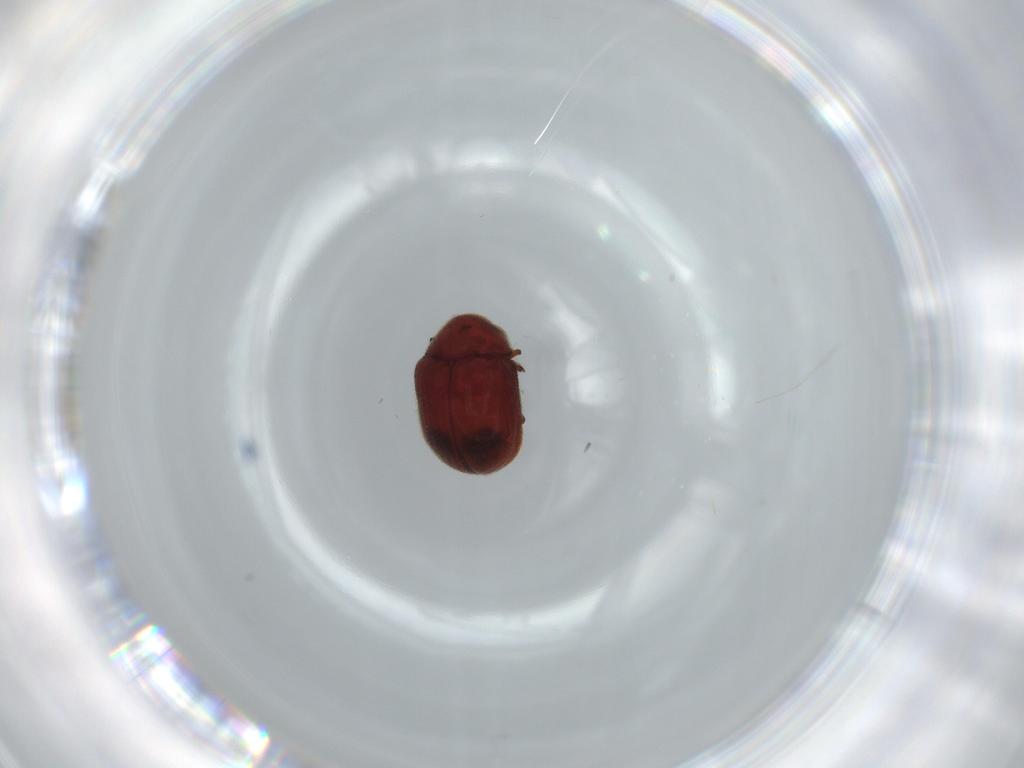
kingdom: Animalia
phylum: Arthropoda
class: Insecta
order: Coleoptera
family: Ptinidae
